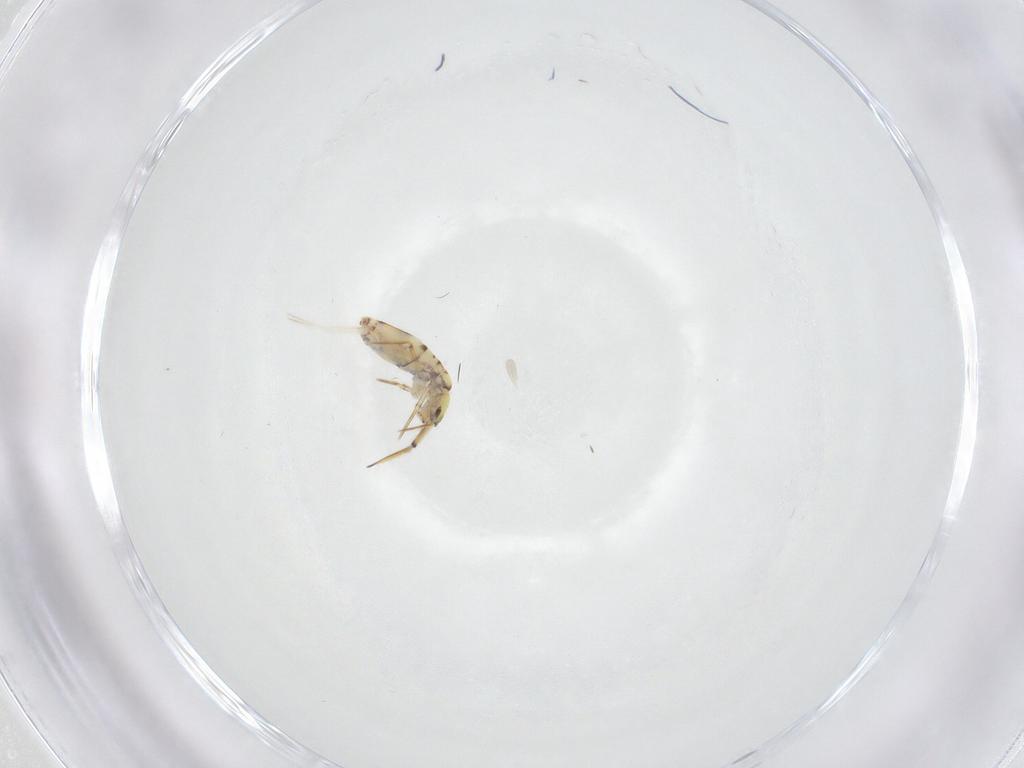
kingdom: Animalia
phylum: Arthropoda
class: Collembola
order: Entomobryomorpha
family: Paronellidae
